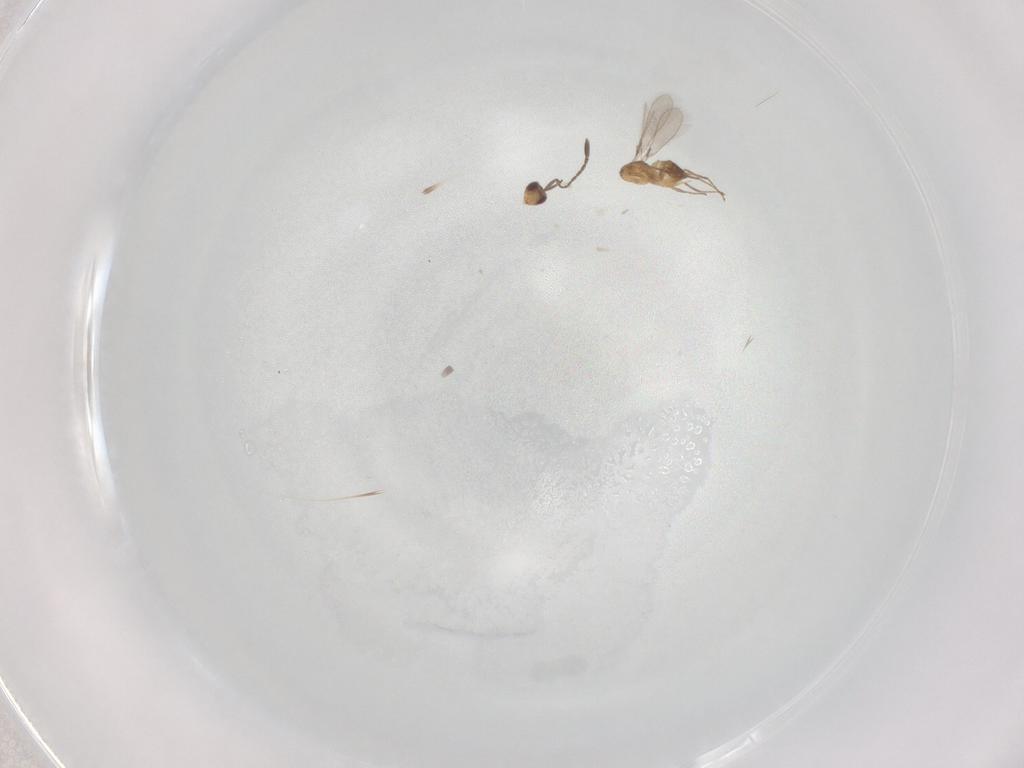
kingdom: Animalia
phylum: Arthropoda
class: Insecta
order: Hymenoptera
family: Mymaridae
